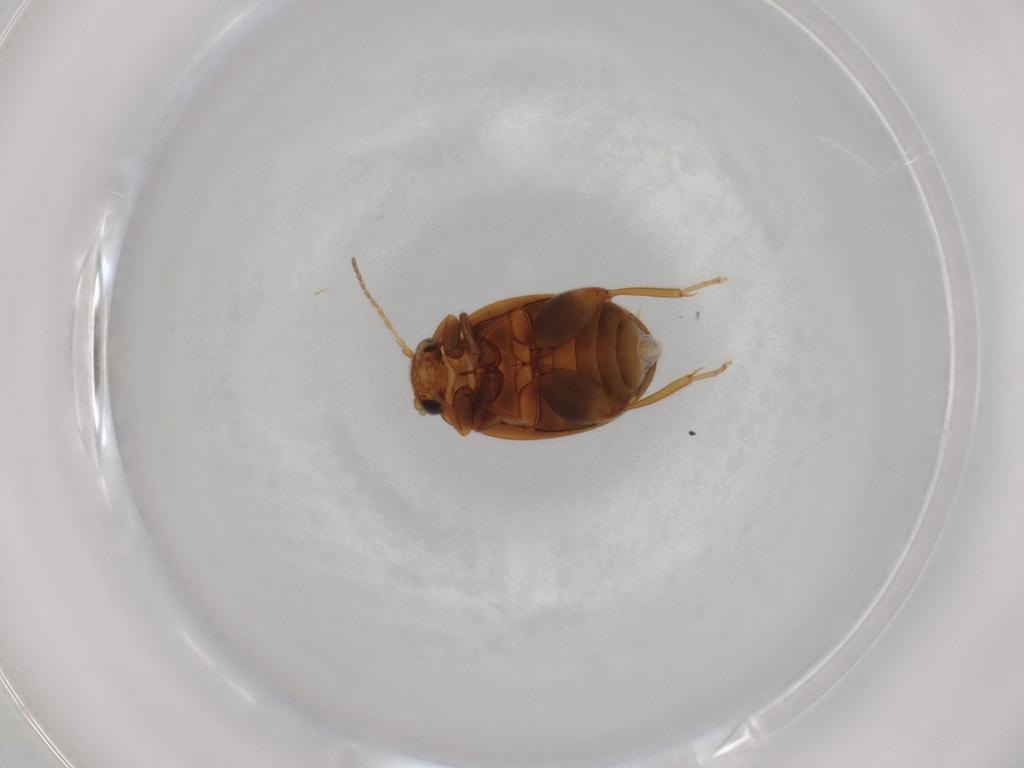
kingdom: Animalia
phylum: Arthropoda
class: Insecta
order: Coleoptera
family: Scirtidae
